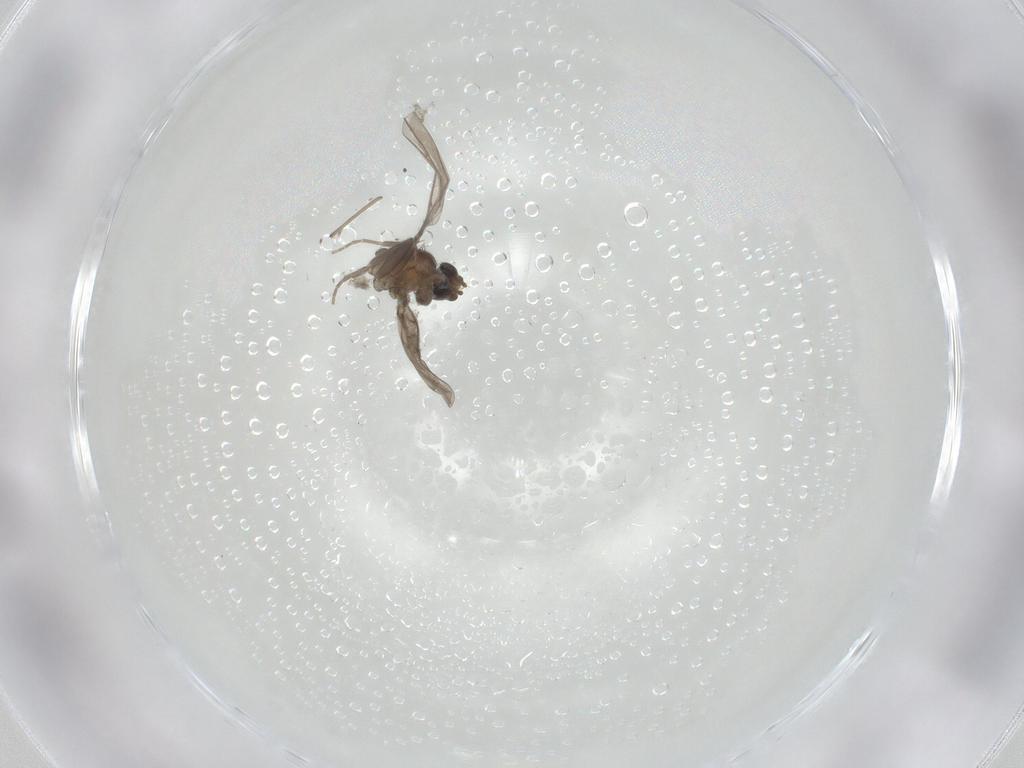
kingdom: Animalia
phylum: Arthropoda
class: Insecta
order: Diptera
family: Phoridae
